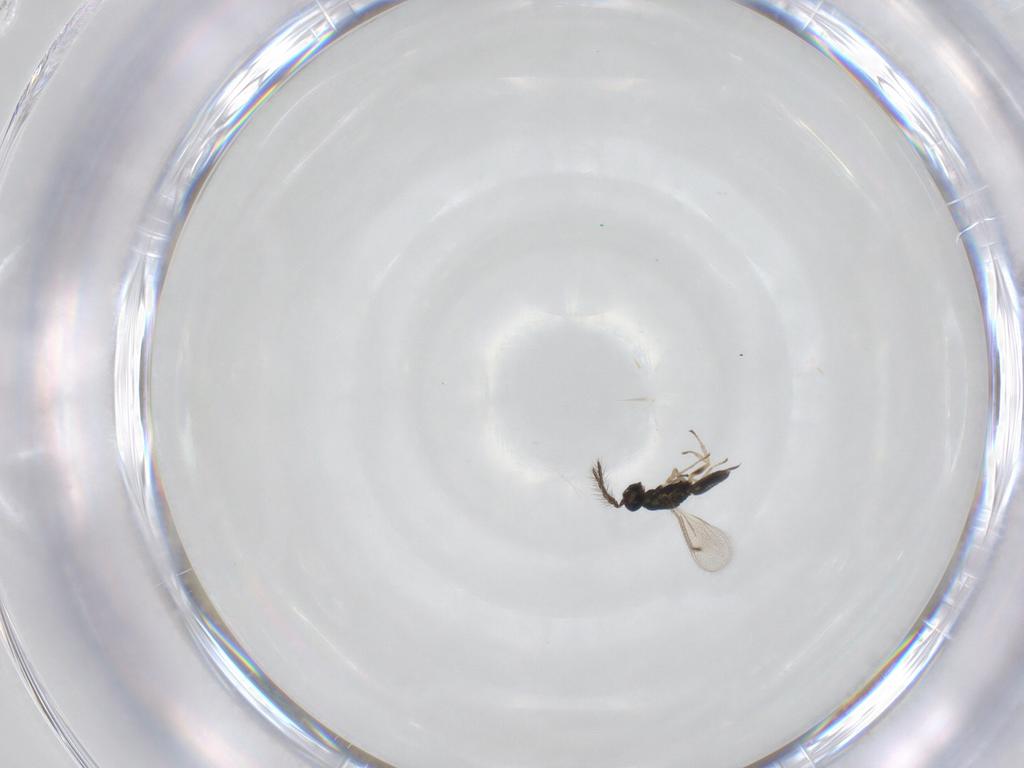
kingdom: Animalia
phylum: Arthropoda
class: Insecta
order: Hymenoptera
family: Eulophidae
